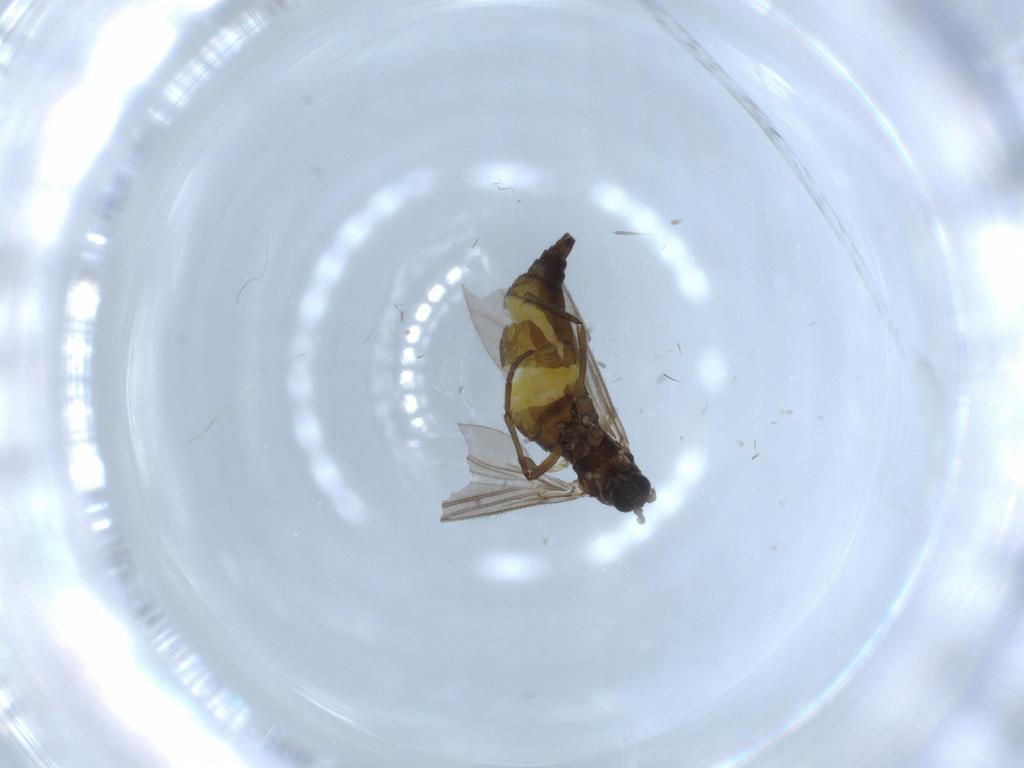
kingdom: Animalia
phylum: Arthropoda
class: Insecta
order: Diptera
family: Sciaridae
